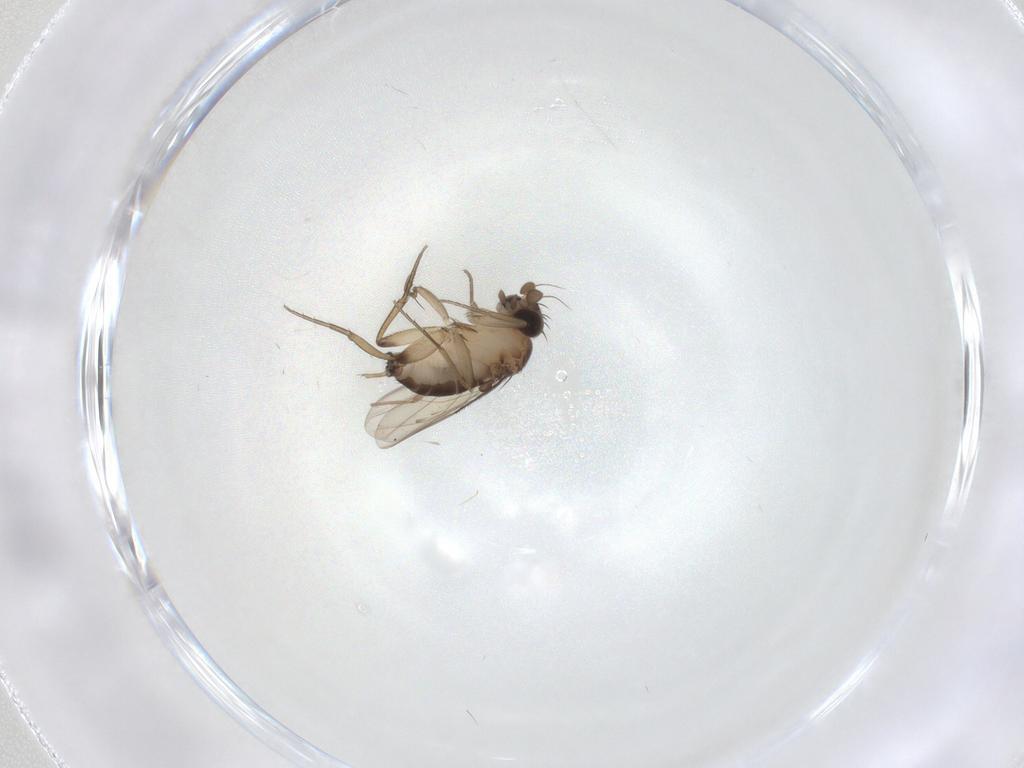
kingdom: Animalia
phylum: Arthropoda
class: Insecta
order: Diptera
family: Phoridae
